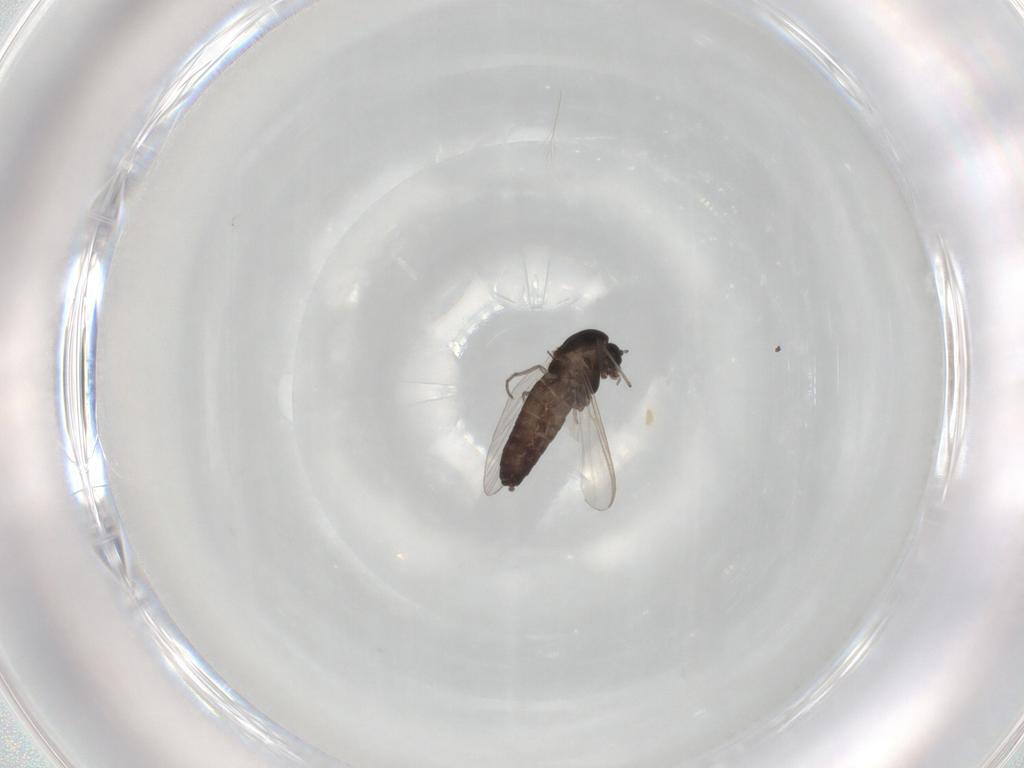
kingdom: Animalia
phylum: Arthropoda
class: Insecta
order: Diptera
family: Chironomidae
